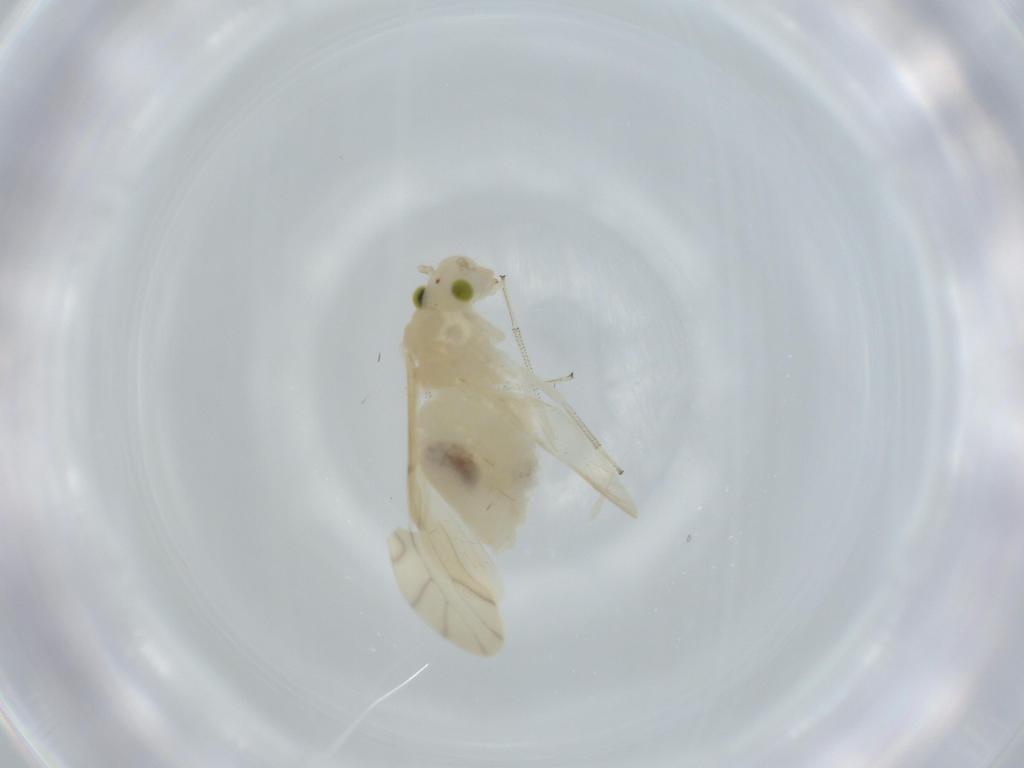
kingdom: Animalia
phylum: Arthropoda
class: Insecta
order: Psocodea
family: Caeciliusidae
